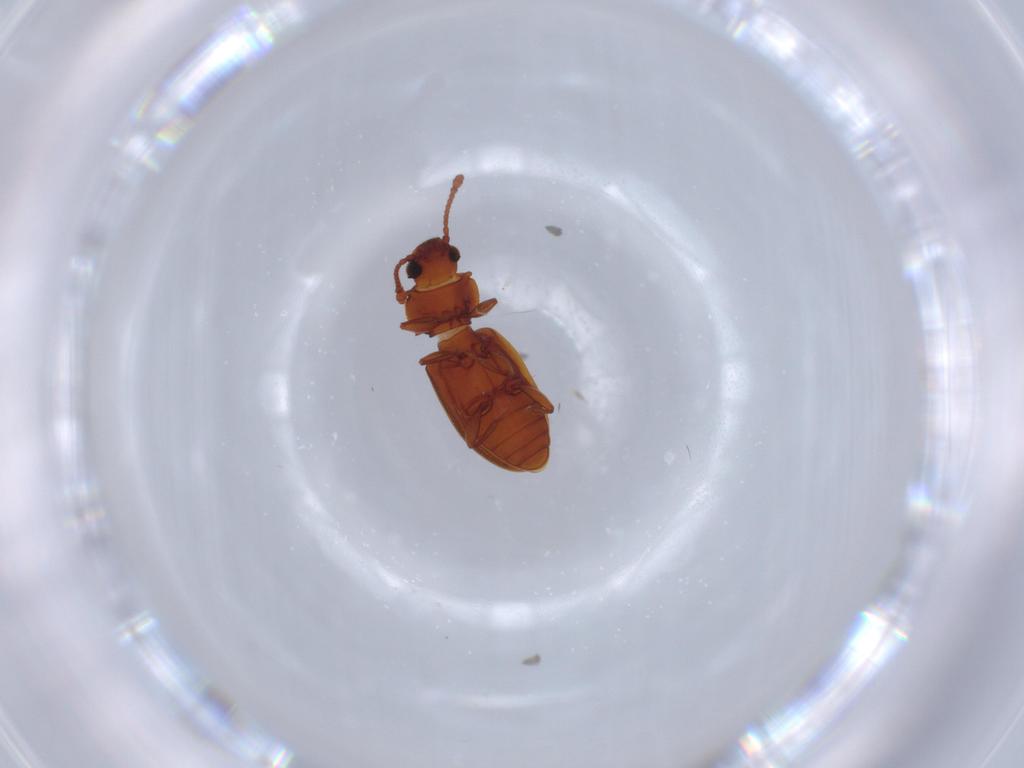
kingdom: Animalia
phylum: Arthropoda
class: Insecta
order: Coleoptera
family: Silvanidae
